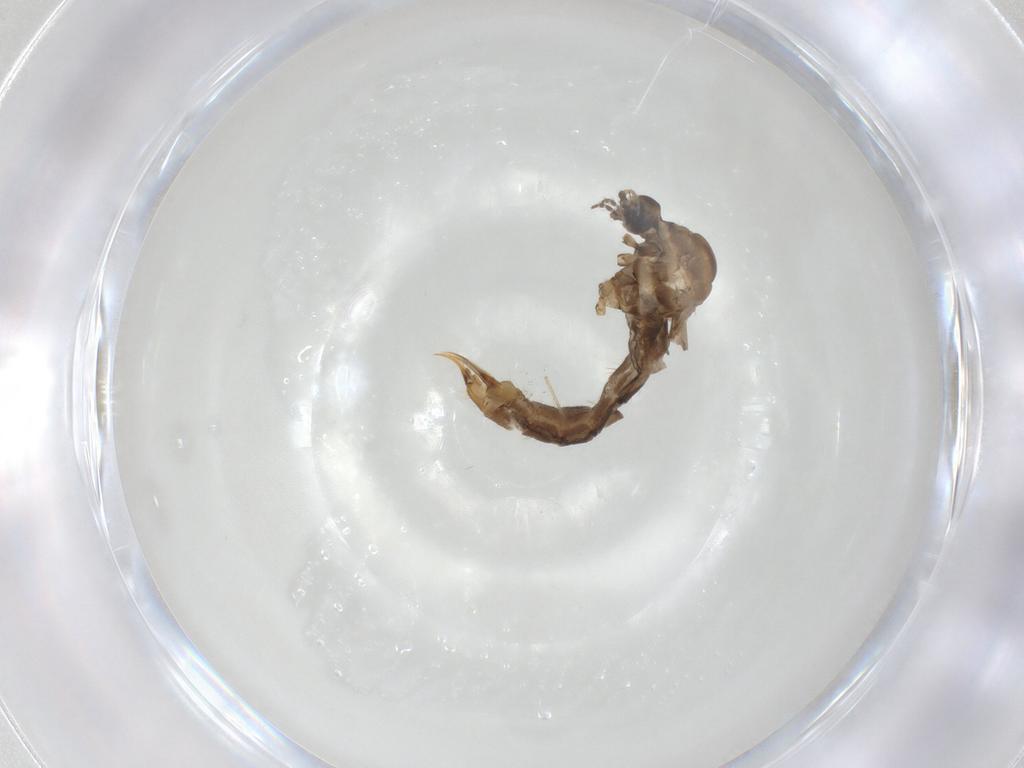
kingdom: Animalia
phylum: Arthropoda
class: Insecta
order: Diptera
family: Limoniidae
